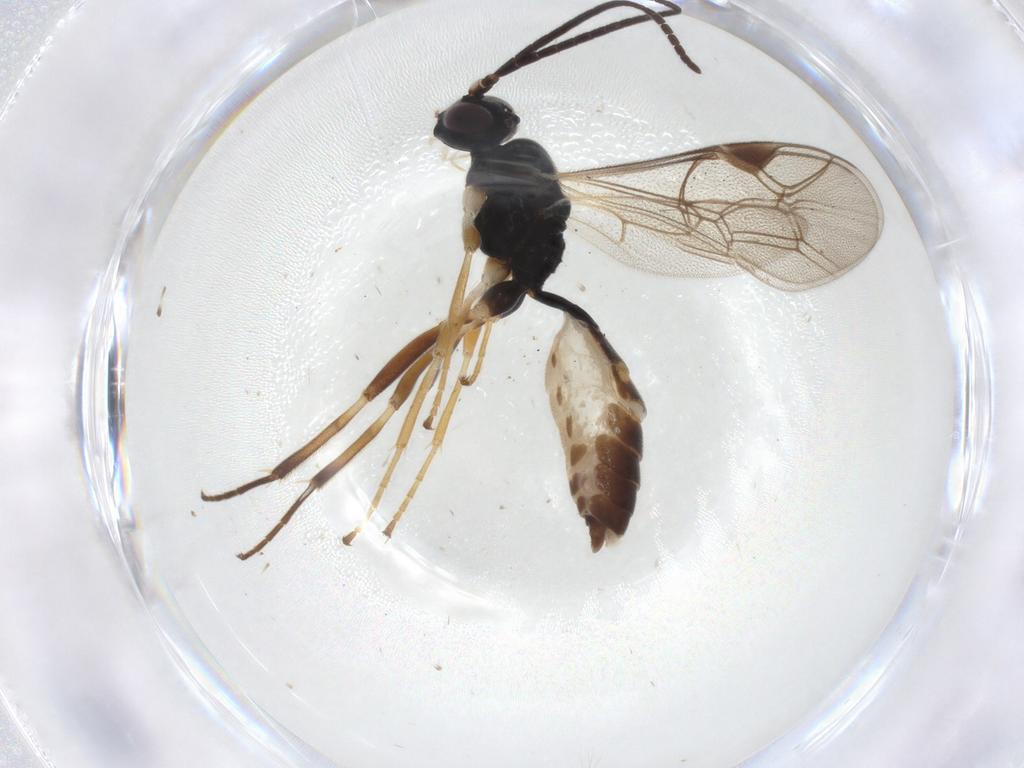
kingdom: Animalia
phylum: Arthropoda
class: Insecta
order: Hymenoptera
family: Ichneumonidae
